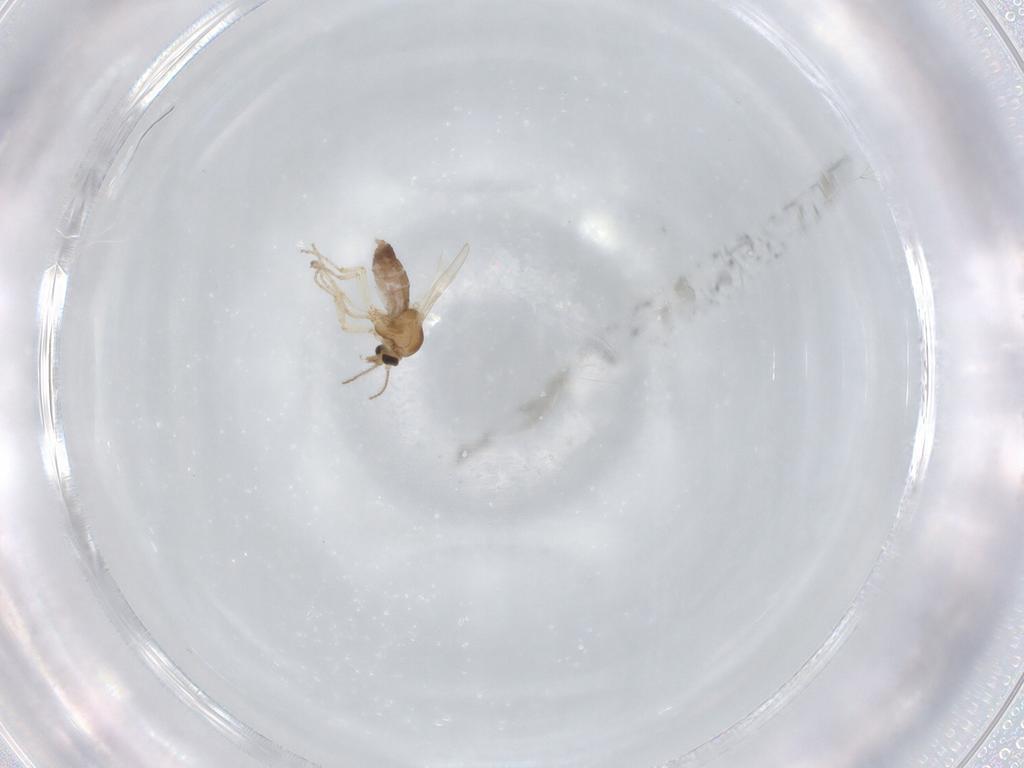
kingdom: Animalia
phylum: Arthropoda
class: Insecta
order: Diptera
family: Ceratopogonidae
